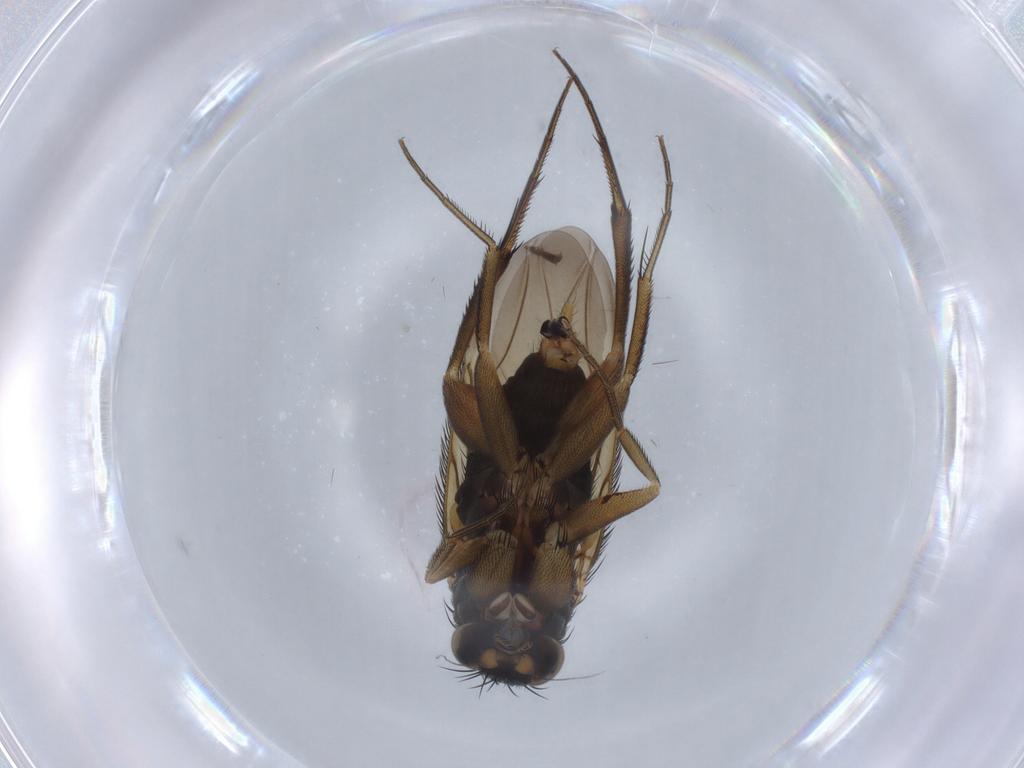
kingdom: Animalia
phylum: Arthropoda
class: Insecta
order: Diptera
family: Phoridae
